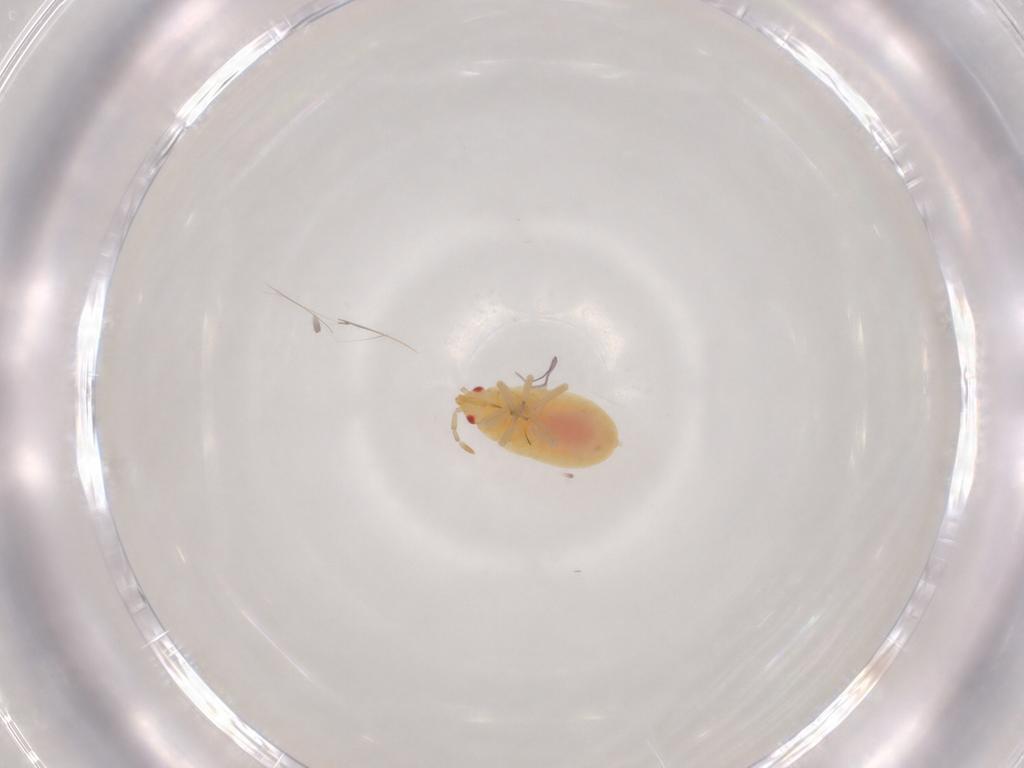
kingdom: Animalia
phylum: Arthropoda
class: Insecta
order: Hemiptera
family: Anthocoridae
